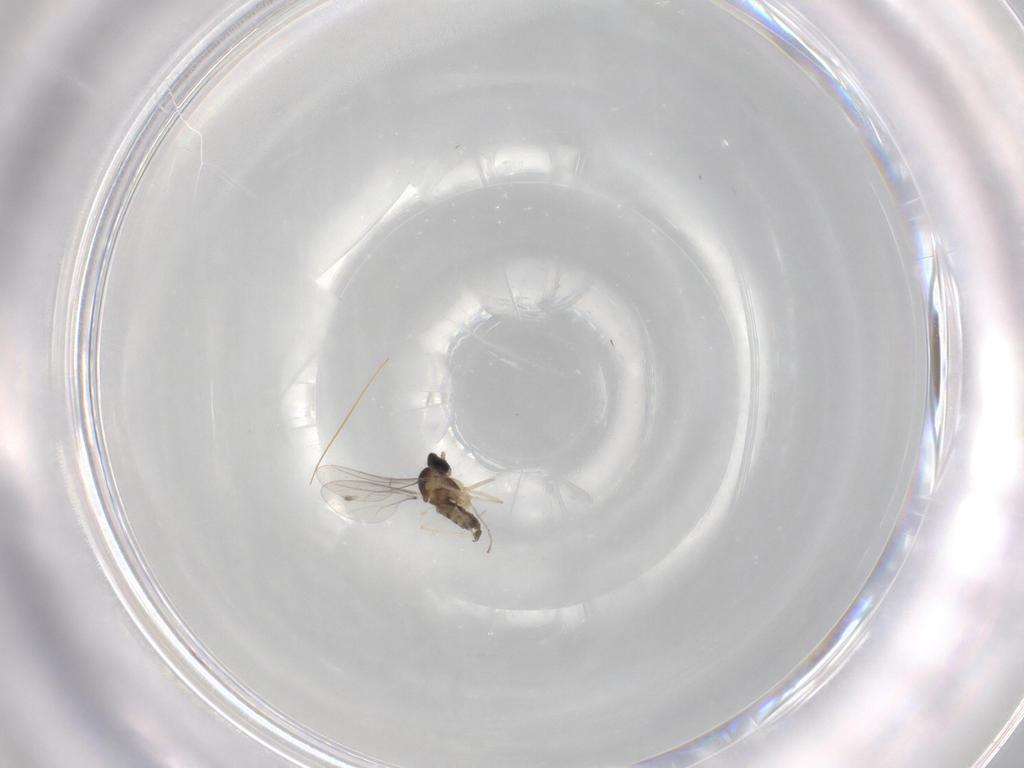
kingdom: Animalia
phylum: Arthropoda
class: Insecta
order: Diptera
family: Cecidomyiidae
